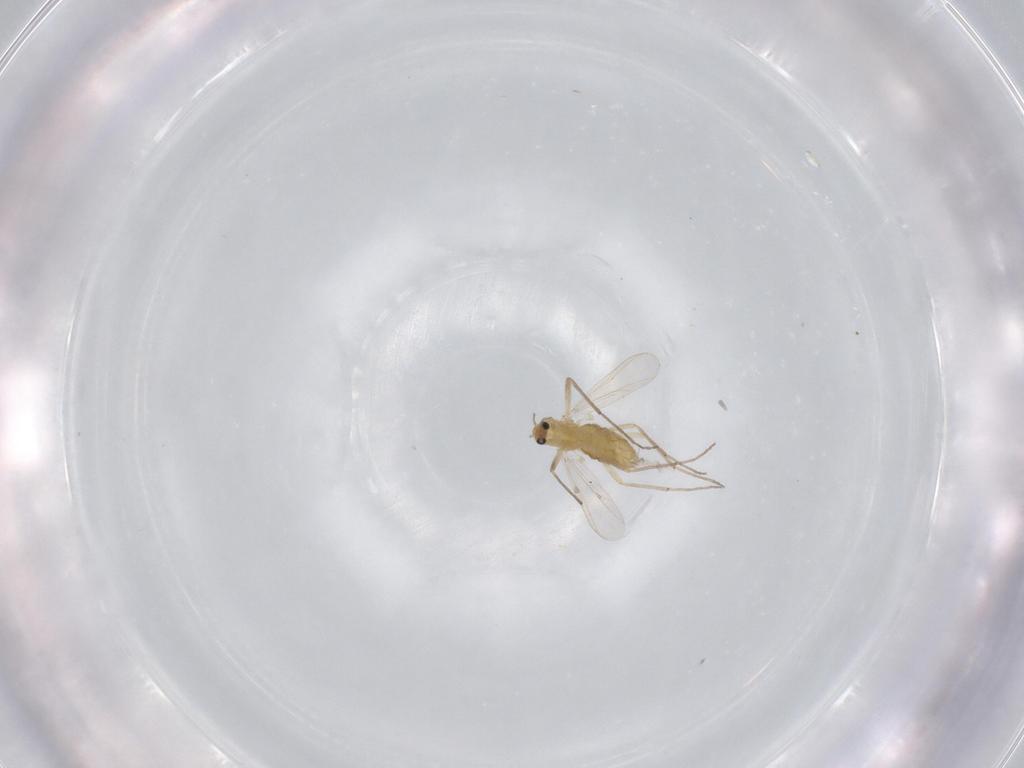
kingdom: Animalia
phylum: Arthropoda
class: Insecta
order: Diptera
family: Chironomidae
